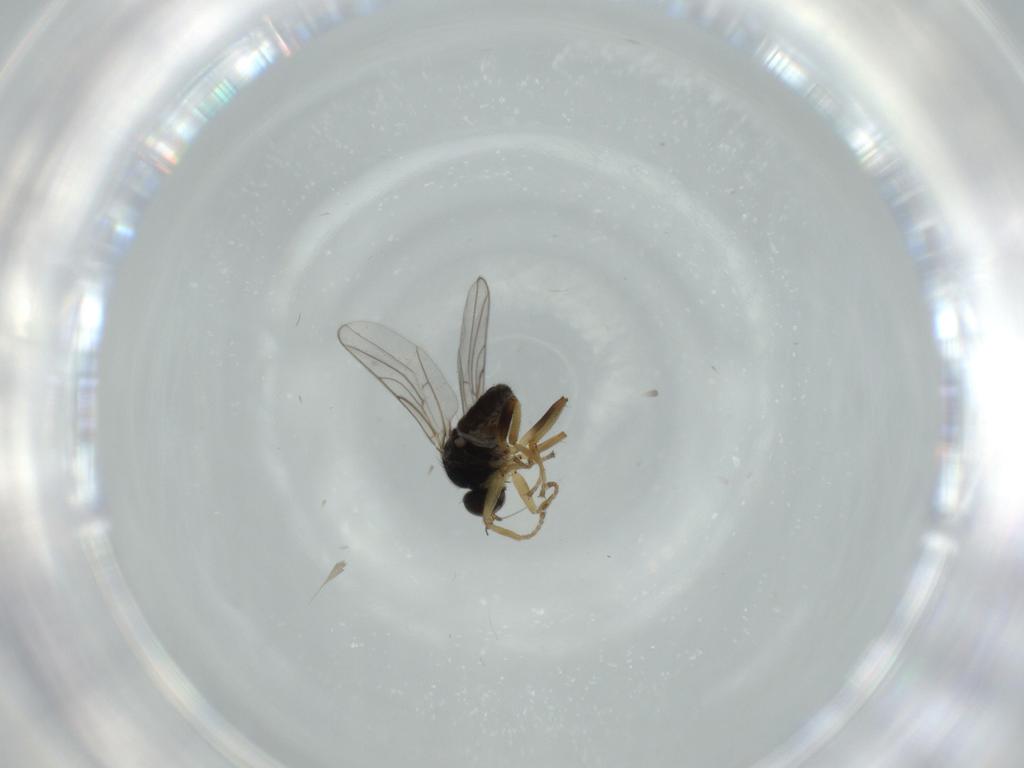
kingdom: Animalia
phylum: Arthropoda
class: Insecta
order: Diptera
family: Hybotidae
